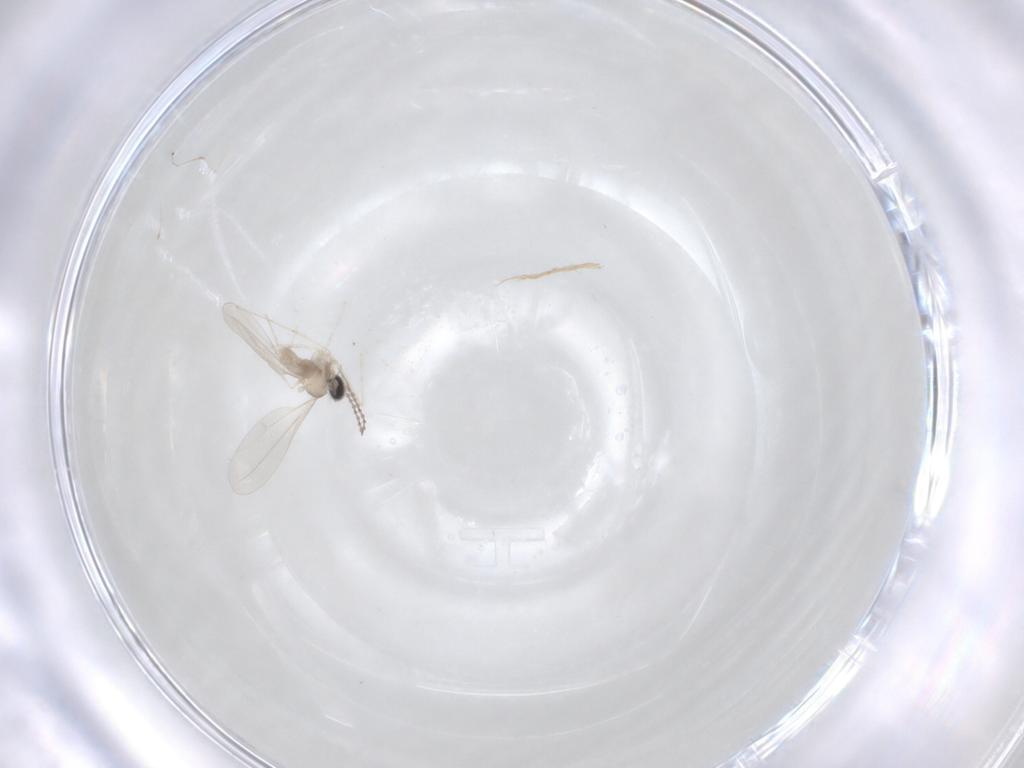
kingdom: Animalia
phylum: Arthropoda
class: Insecta
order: Diptera
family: Cecidomyiidae
